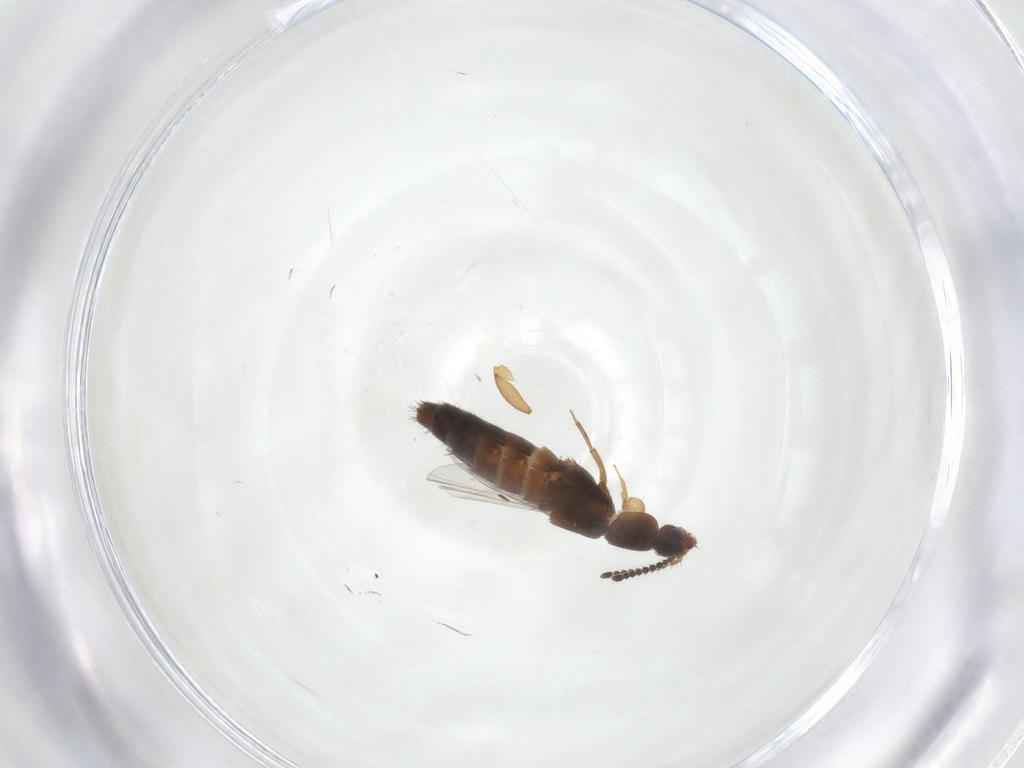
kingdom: Animalia
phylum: Arthropoda
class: Insecta
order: Coleoptera
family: Staphylinidae
